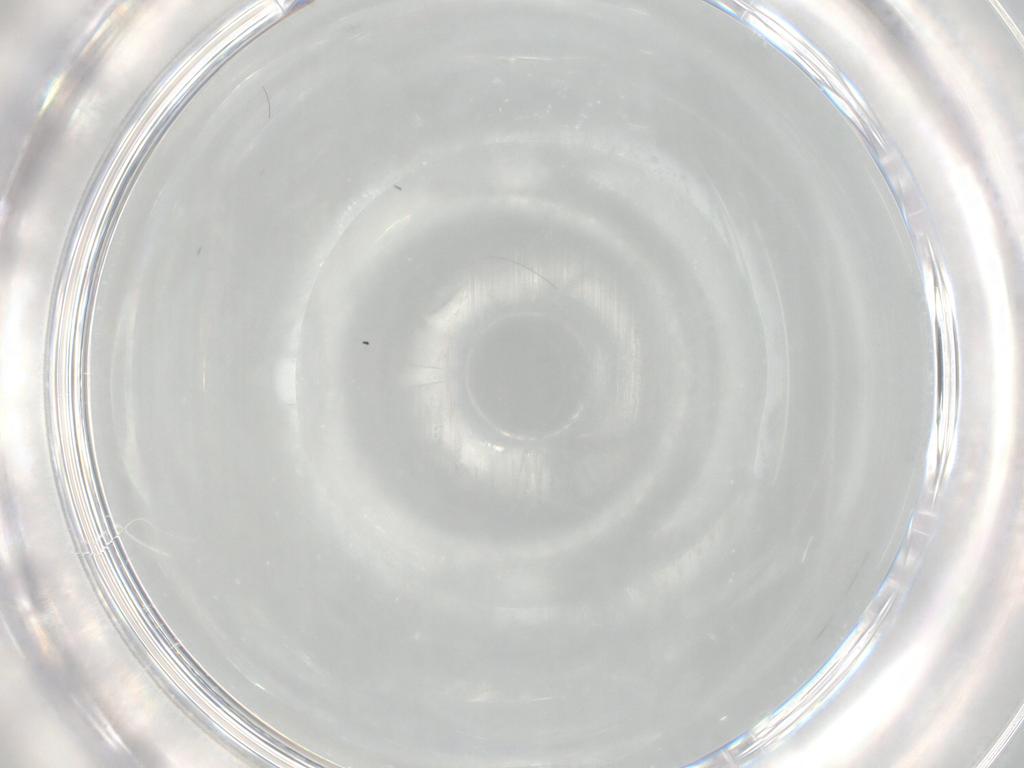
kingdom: Animalia
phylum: Arthropoda
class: Insecta
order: Diptera
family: Muscidae
